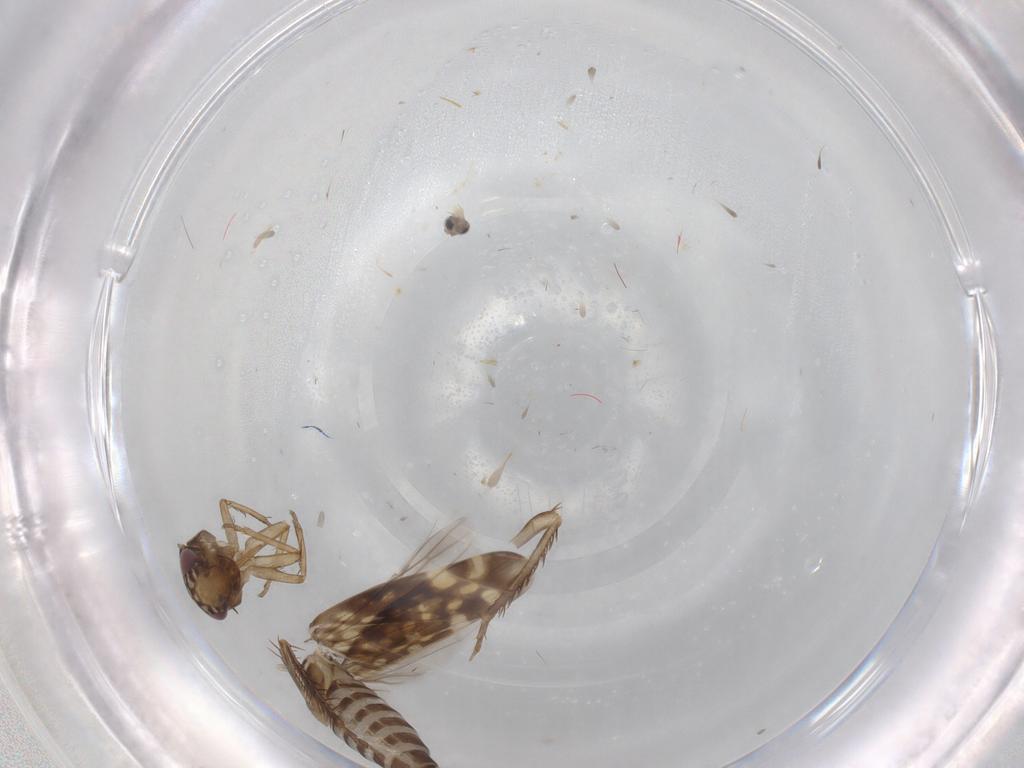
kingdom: Animalia
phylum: Arthropoda
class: Insecta
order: Hemiptera
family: Cicadellidae
